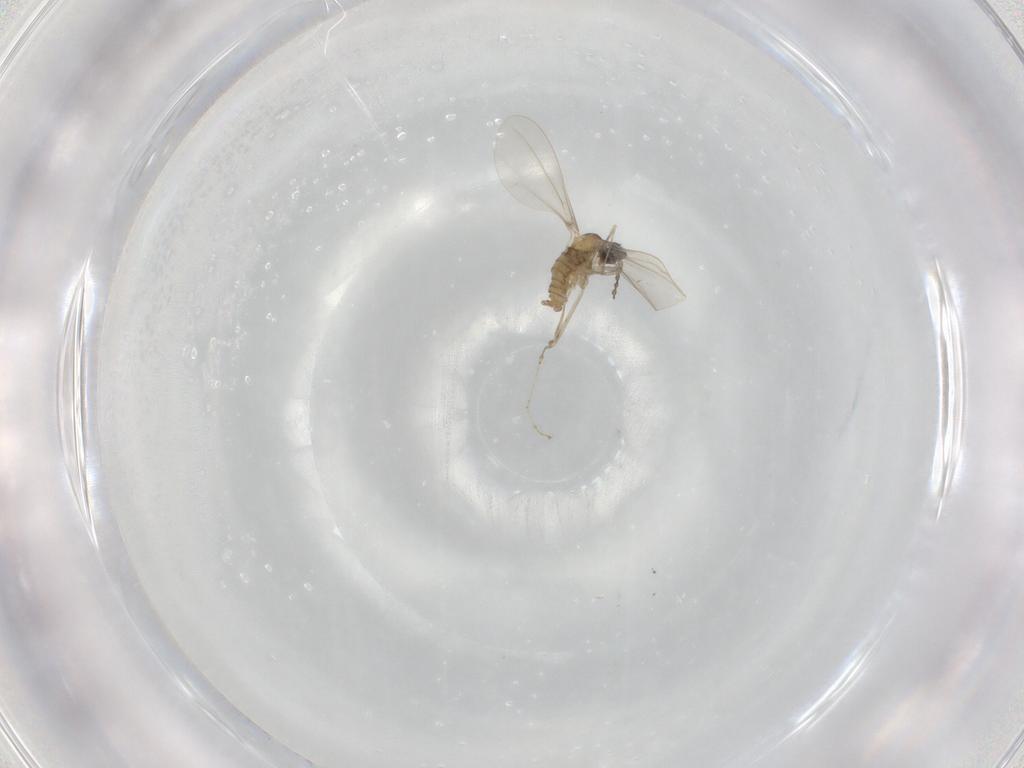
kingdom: Animalia
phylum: Arthropoda
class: Insecta
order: Diptera
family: Cecidomyiidae
